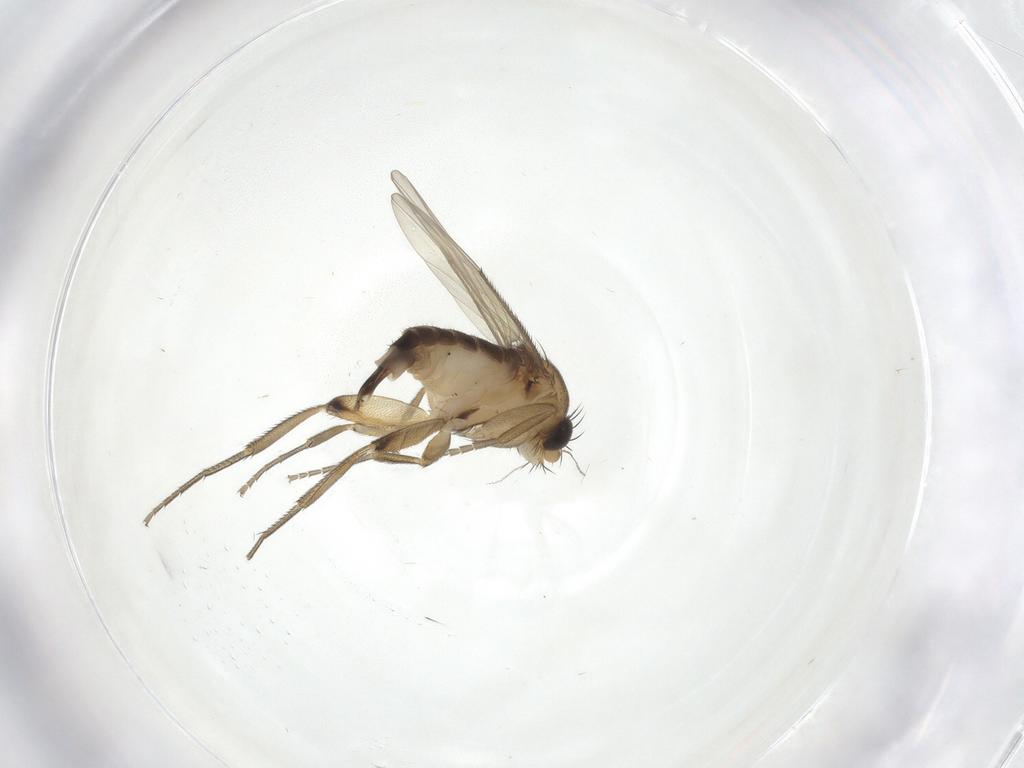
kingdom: Animalia
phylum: Arthropoda
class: Insecta
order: Diptera
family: Phoridae
